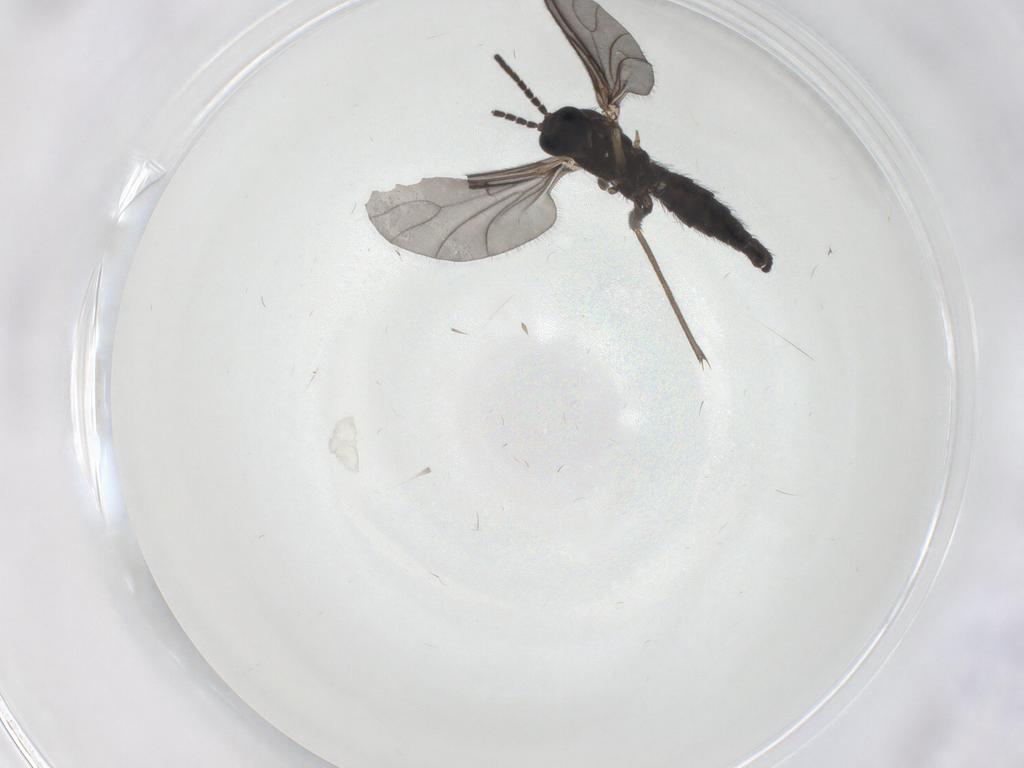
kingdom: Animalia
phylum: Arthropoda
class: Insecta
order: Diptera
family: Sciaridae
